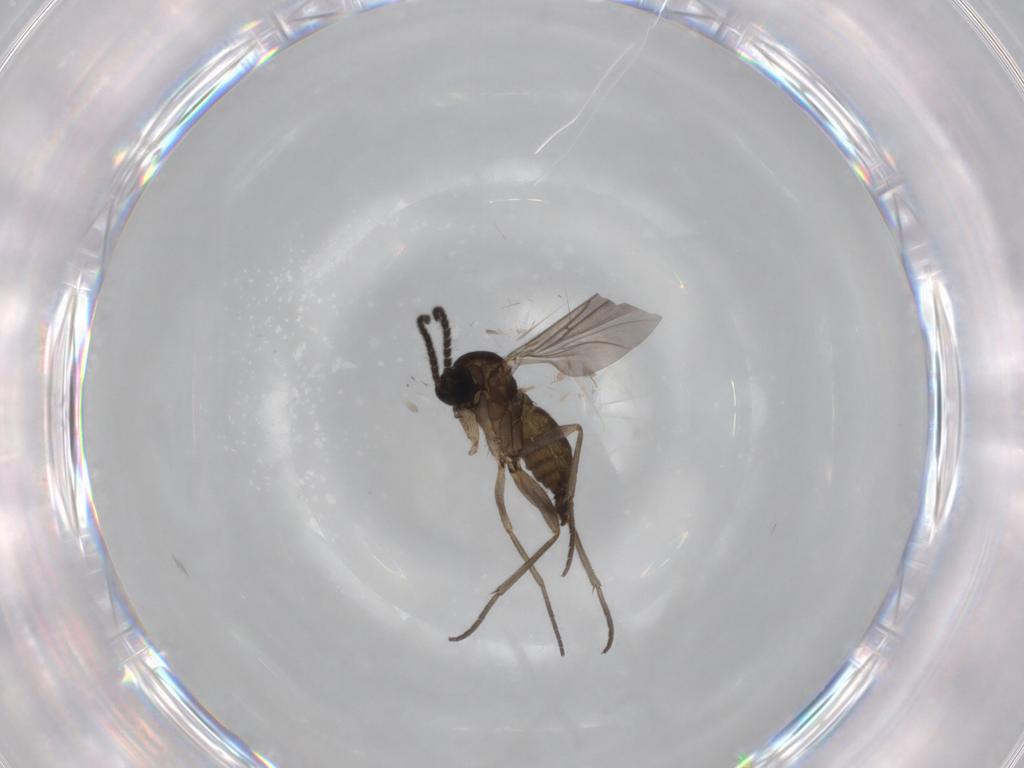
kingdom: Animalia
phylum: Arthropoda
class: Insecta
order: Diptera
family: Sciaridae
